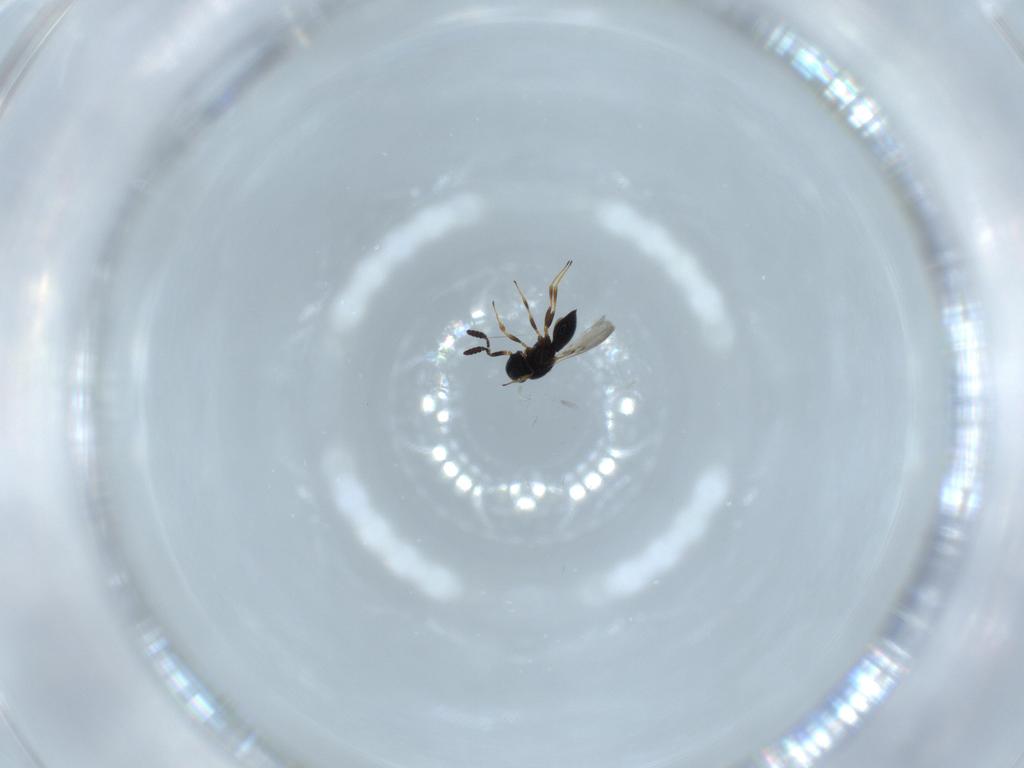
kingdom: Animalia
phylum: Arthropoda
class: Insecta
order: Hymenoptera
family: Scelionidae
